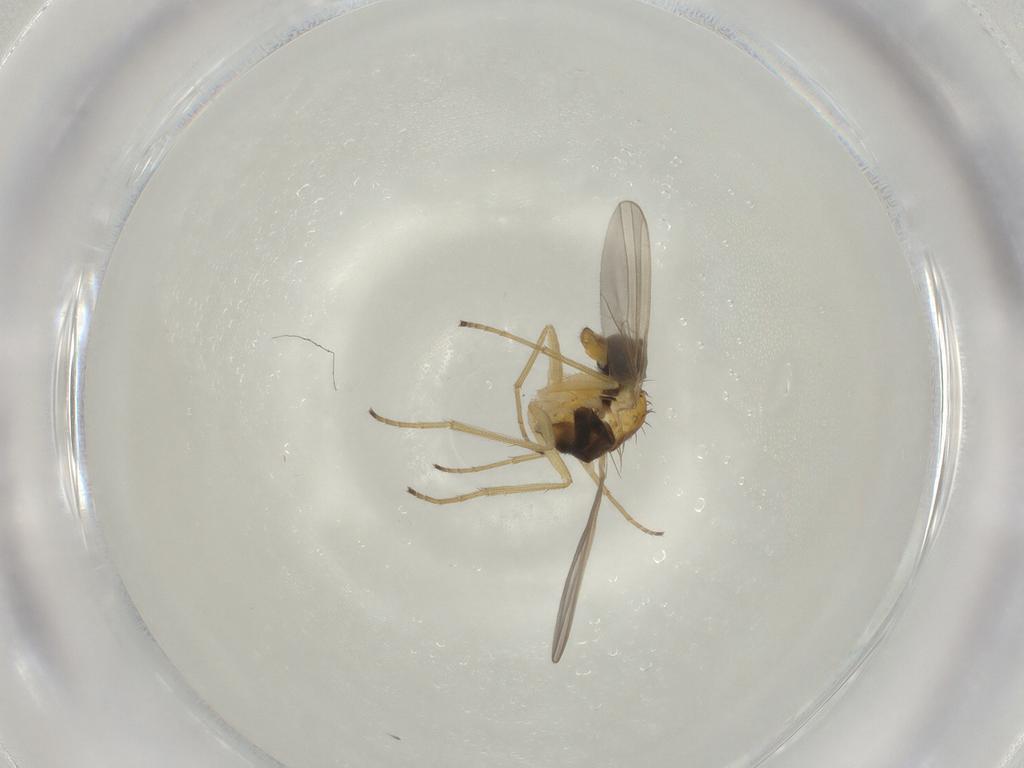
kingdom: Animalia
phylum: Arthropoda
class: Insecta
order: Diptera
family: Dolichopodidae
